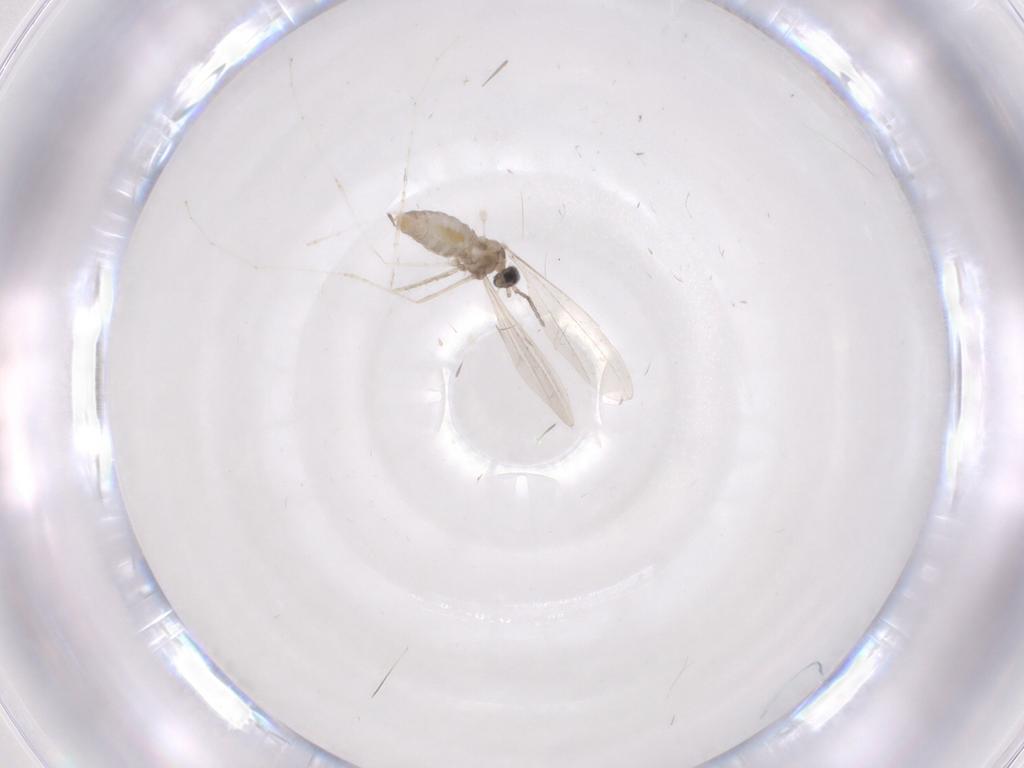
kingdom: Animalia
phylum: Arthropoda
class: Insecta
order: Diptera
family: Cecidomyiidae
